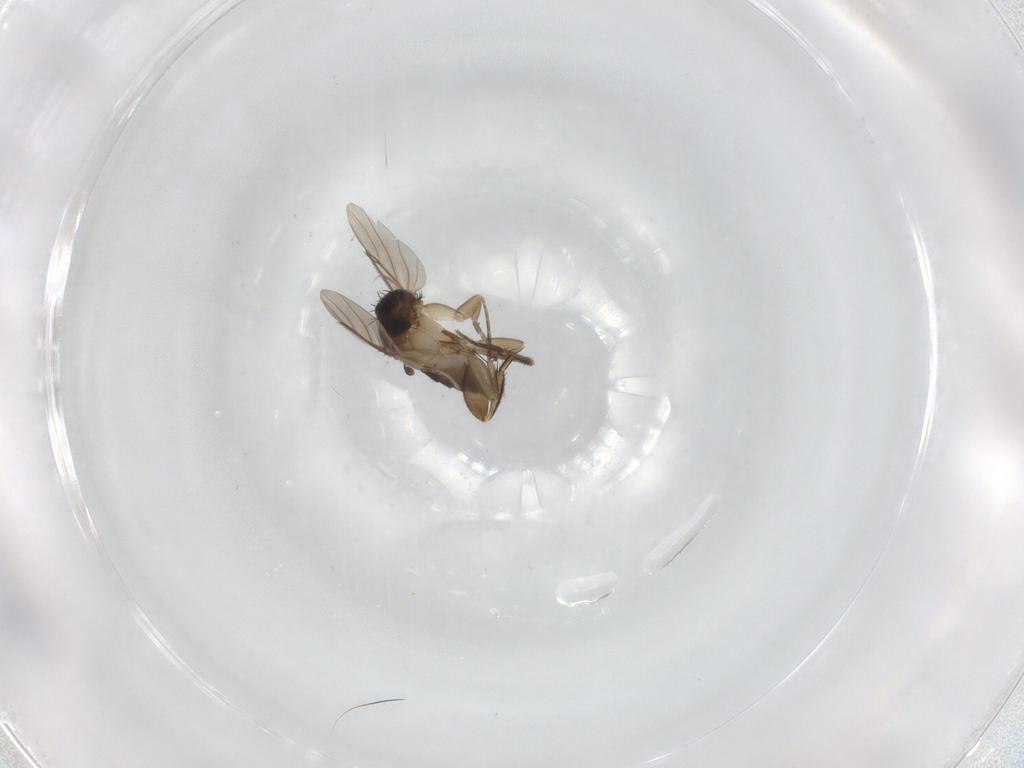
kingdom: Animalia
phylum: Arthropoda
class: Insecta
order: Diptera
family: Phoridae
